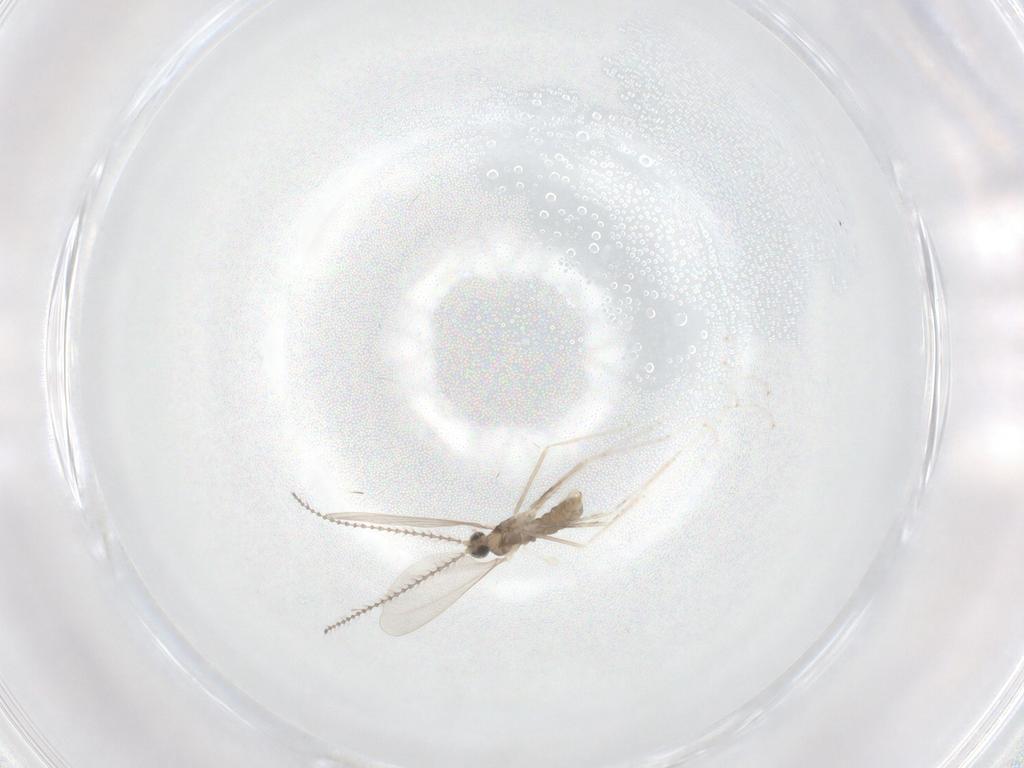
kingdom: Animalia
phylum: Arthropoda
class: Insecta
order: Diptera
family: Cecidomyiidae
